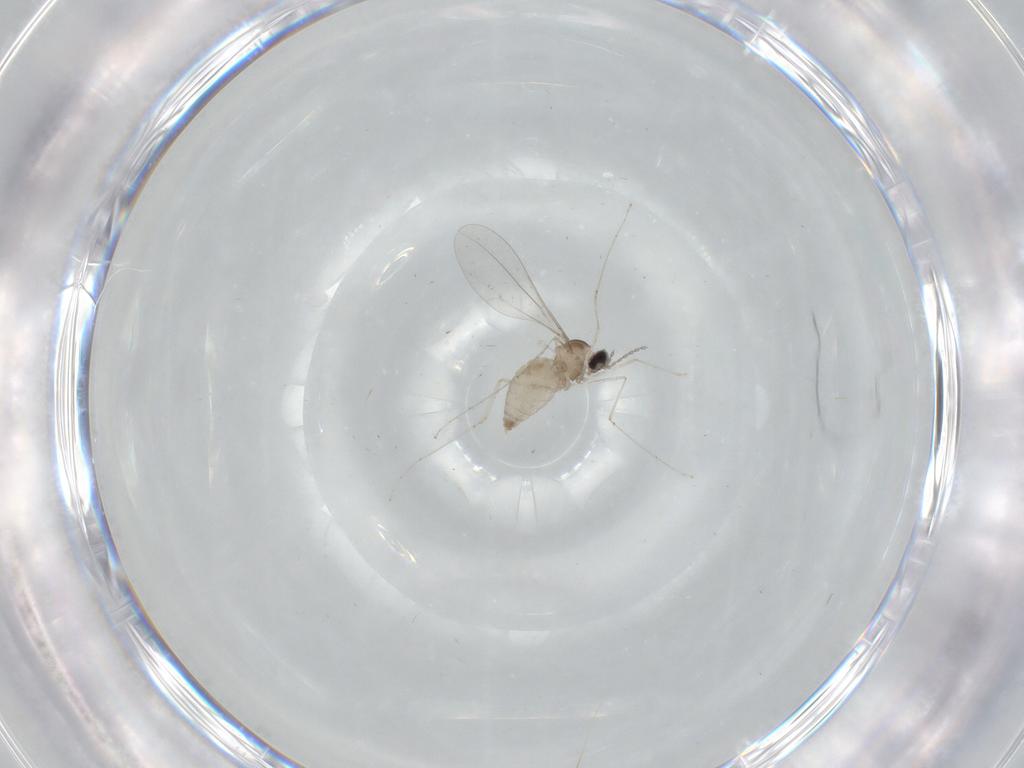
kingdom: Animalia
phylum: Arthropoda
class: Insecta
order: Diptera
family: Cecidomyiidae
